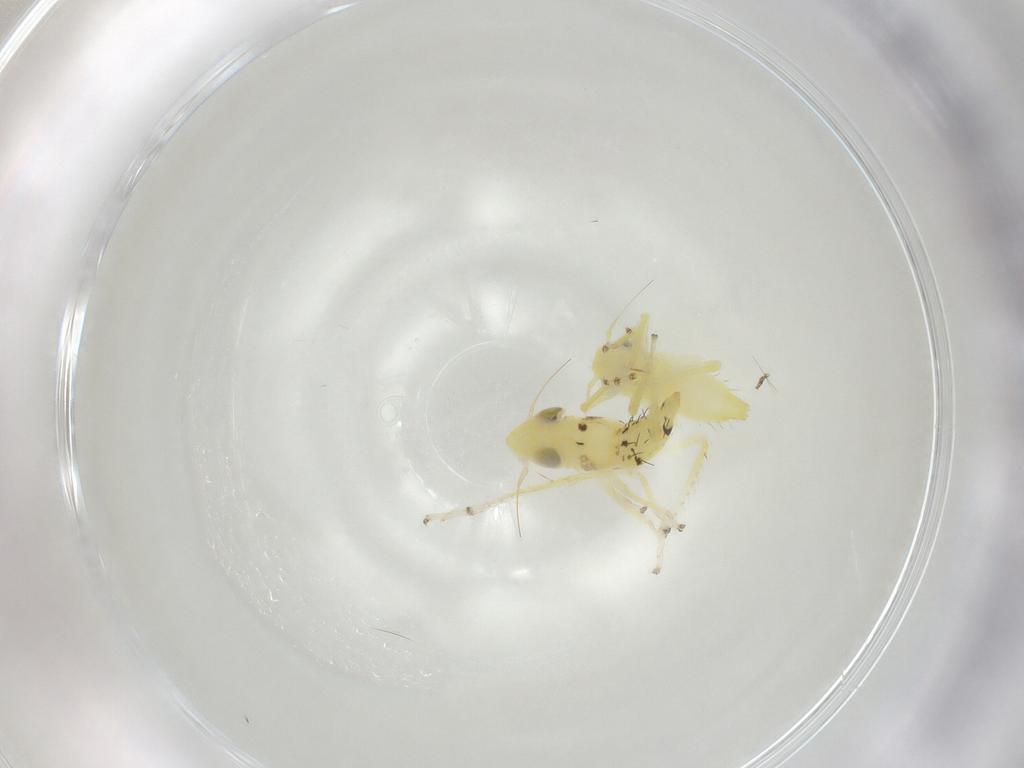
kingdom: Animalia
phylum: Arthropoda
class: Insecta
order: Hemiptera
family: Cicadellidae
